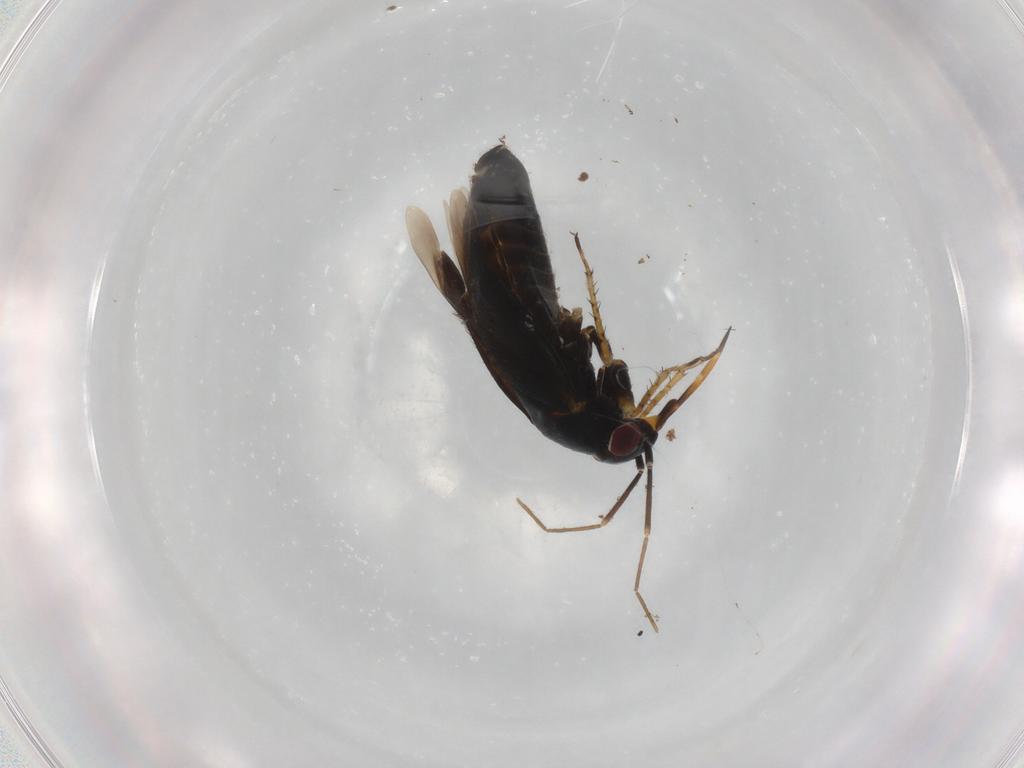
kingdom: Animalia
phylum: Arthropoda
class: Insecta
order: Hemiptera
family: Miridae
